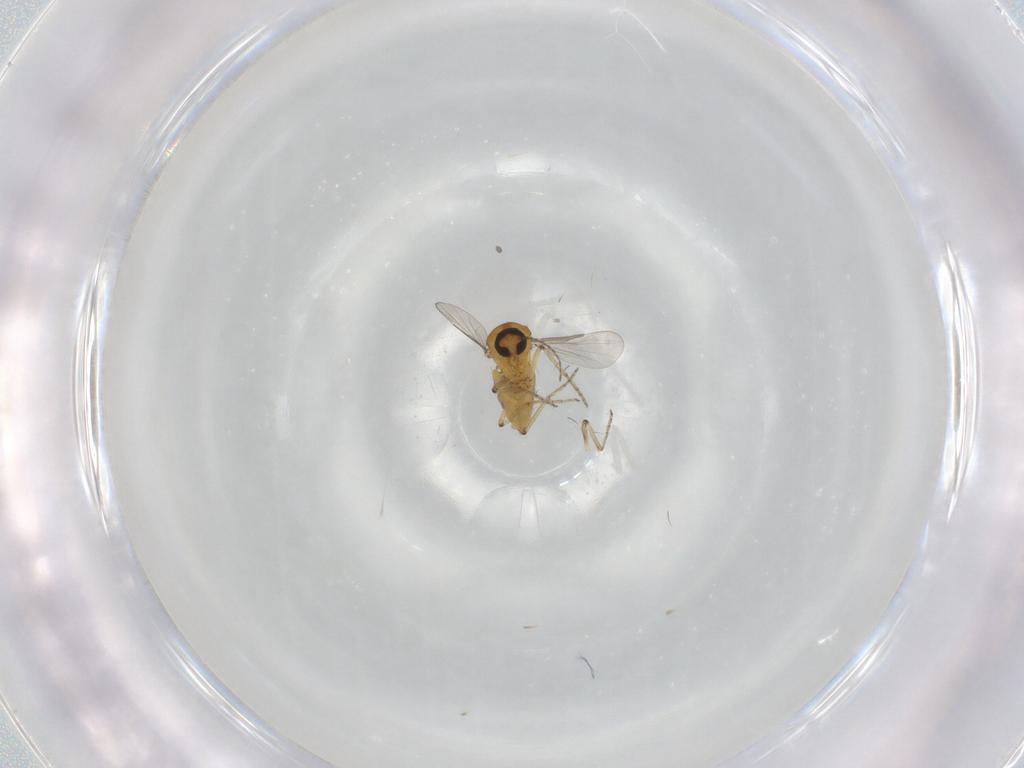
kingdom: Animalia
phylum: Arthropoda
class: Insecta
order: Diptera
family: Ceratopogonidae
